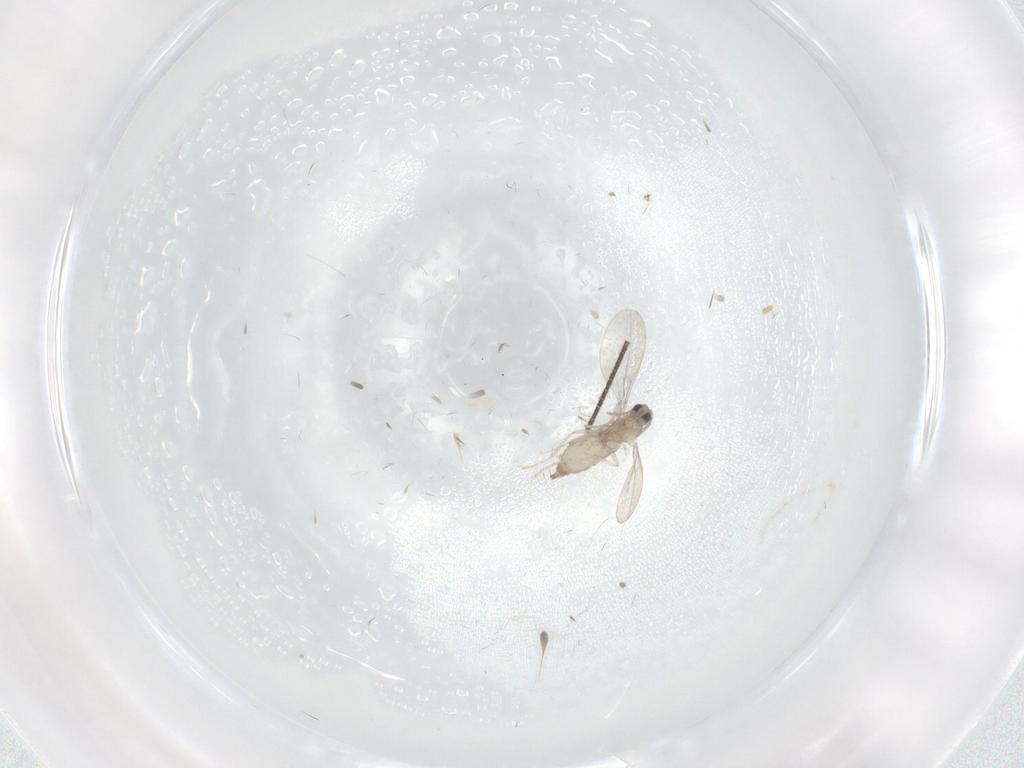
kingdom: Animalia
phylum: Arthropoda
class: Insecta
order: Diptera
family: Cecidomyiidae
